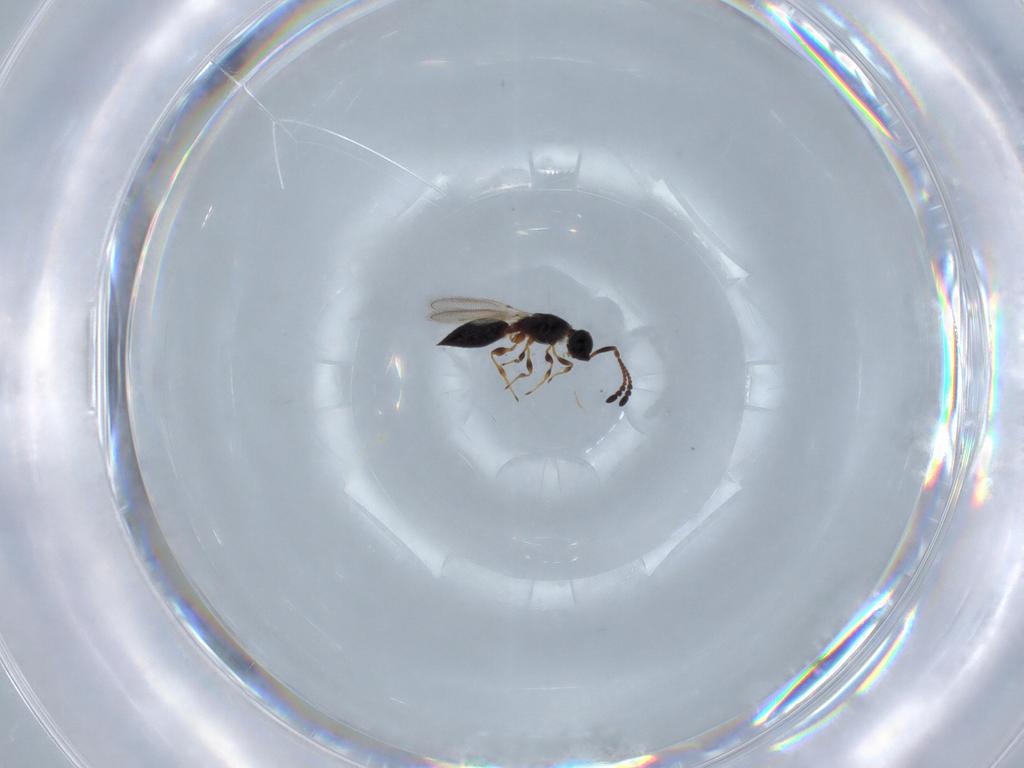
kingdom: Animalia
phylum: Arthropoda
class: Insecta
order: Hymenoptera
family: Diapriidae
